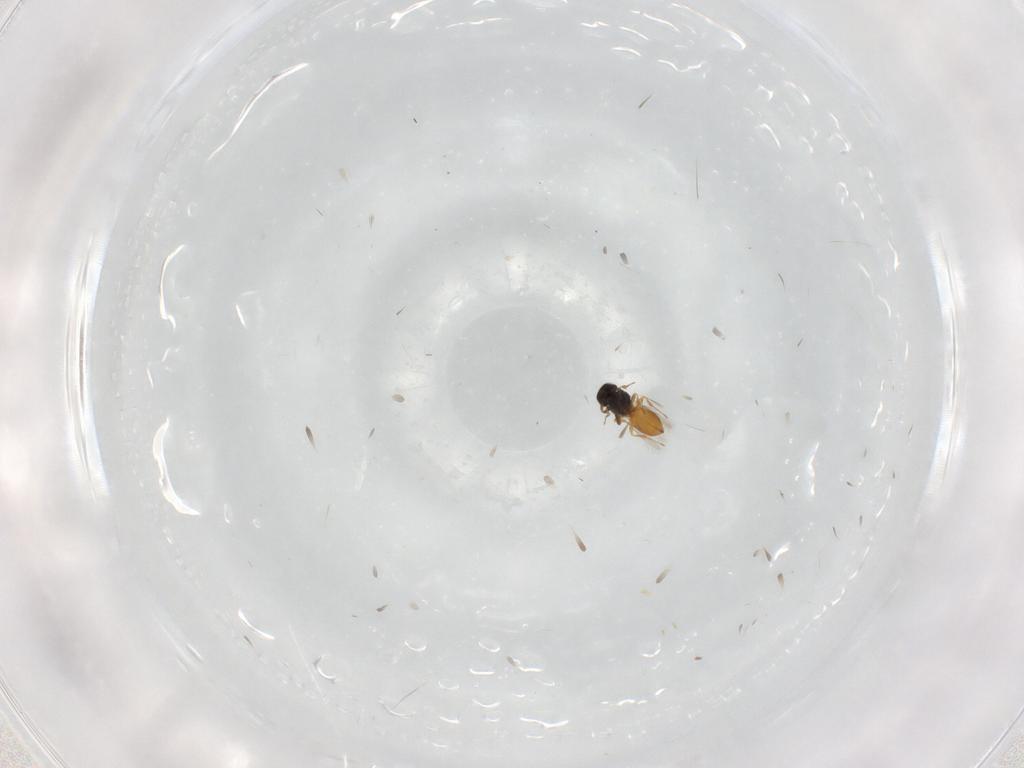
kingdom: Animalia
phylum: Arthropoda
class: Insecta
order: Hymenoptera
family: Scelionidae
